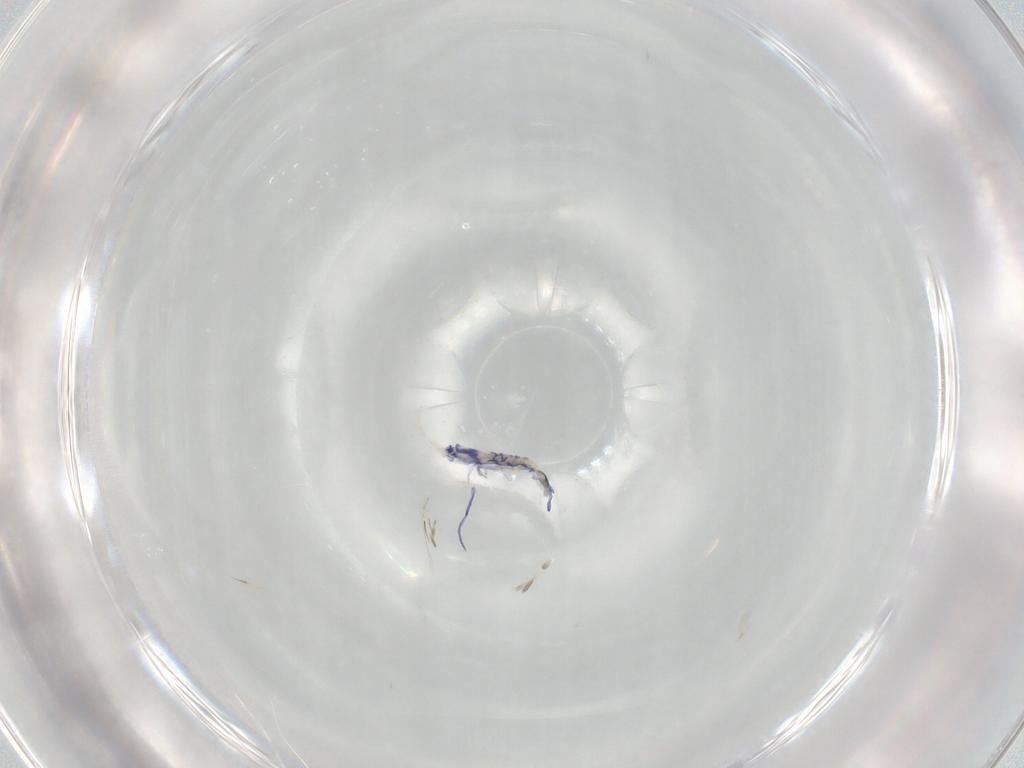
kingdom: Animalia
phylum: Arthropoda
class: Collembola
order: Entomobryomorpha
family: Entomobryidae
